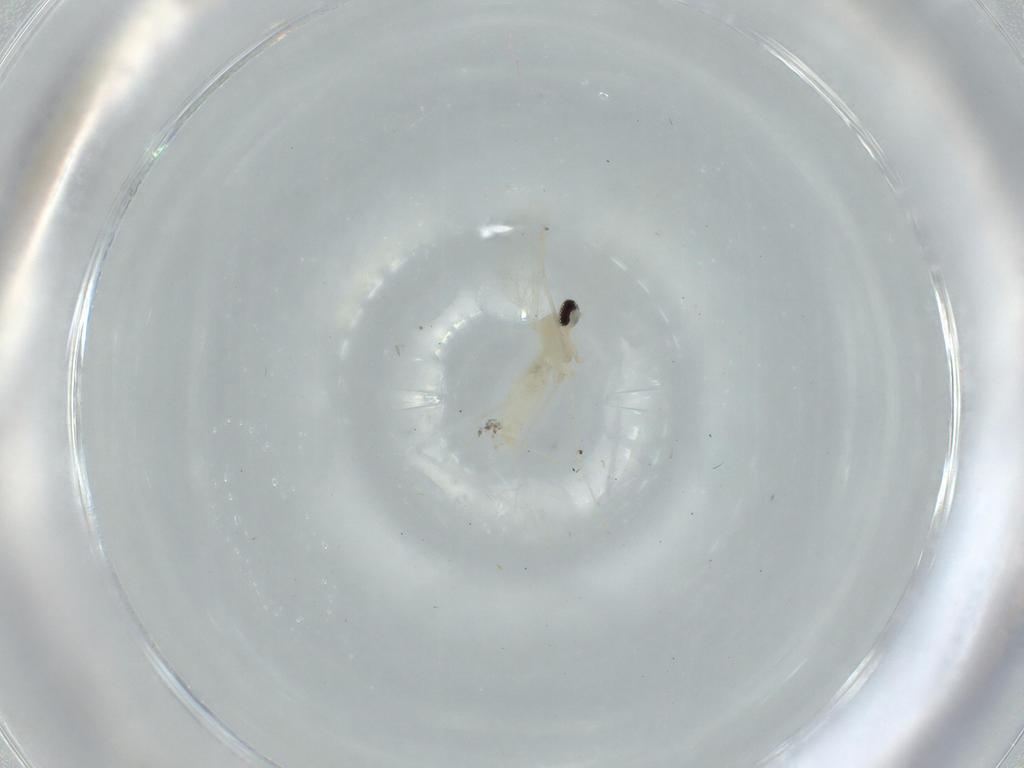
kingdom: Animalia
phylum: Arthropoda
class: Insecta
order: Diptera
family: Cecidomyiidae
